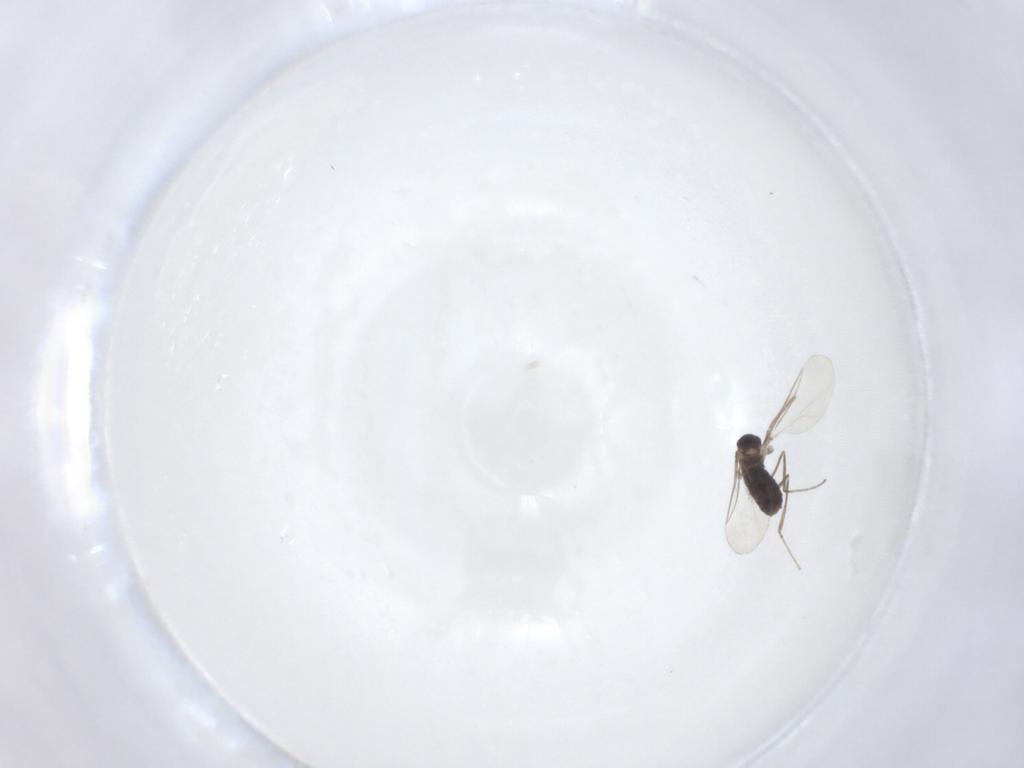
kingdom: Animalia
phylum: Arthropoda
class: Insecta
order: Diptera
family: Cecidomyiidae
